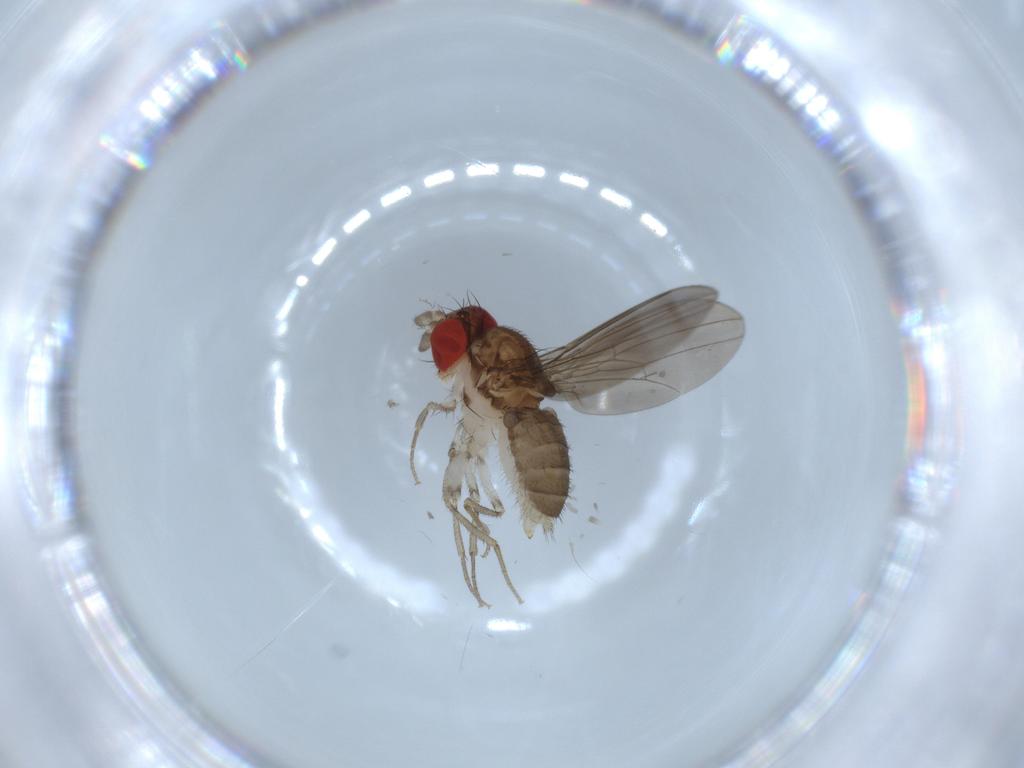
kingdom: Animalia
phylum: Arthropoda
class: Insecta
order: Diptera
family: Drosophilidae
